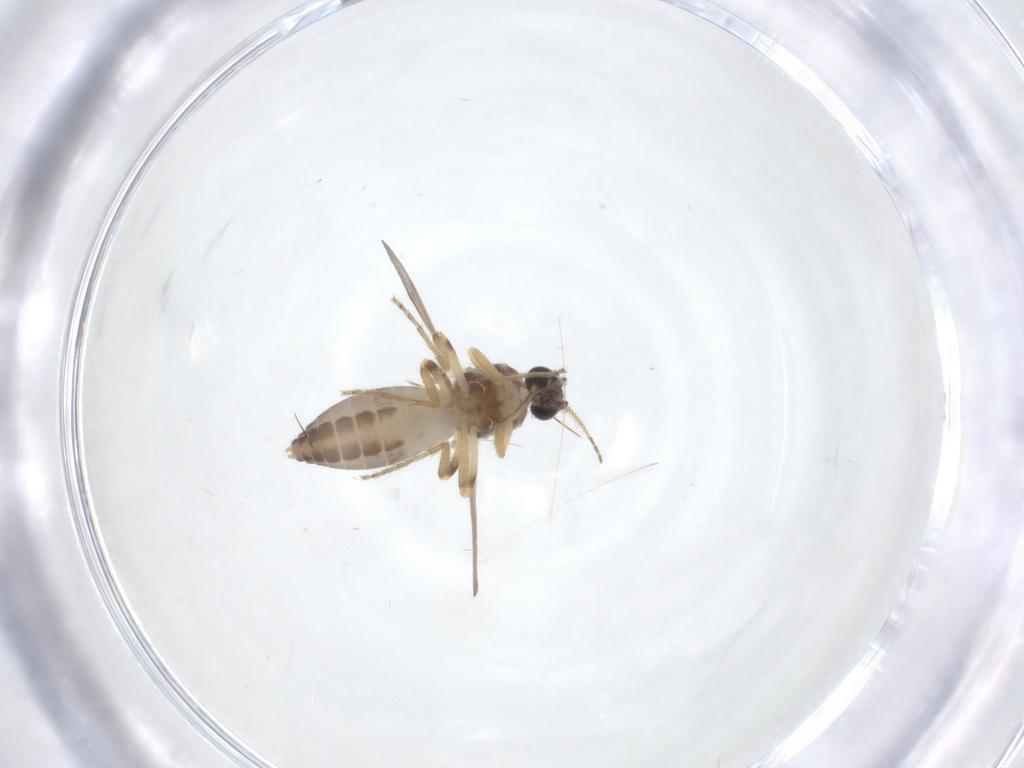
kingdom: Animalia
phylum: Arthropoda
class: Insecta
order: Diptera
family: Ceratopogonidae
